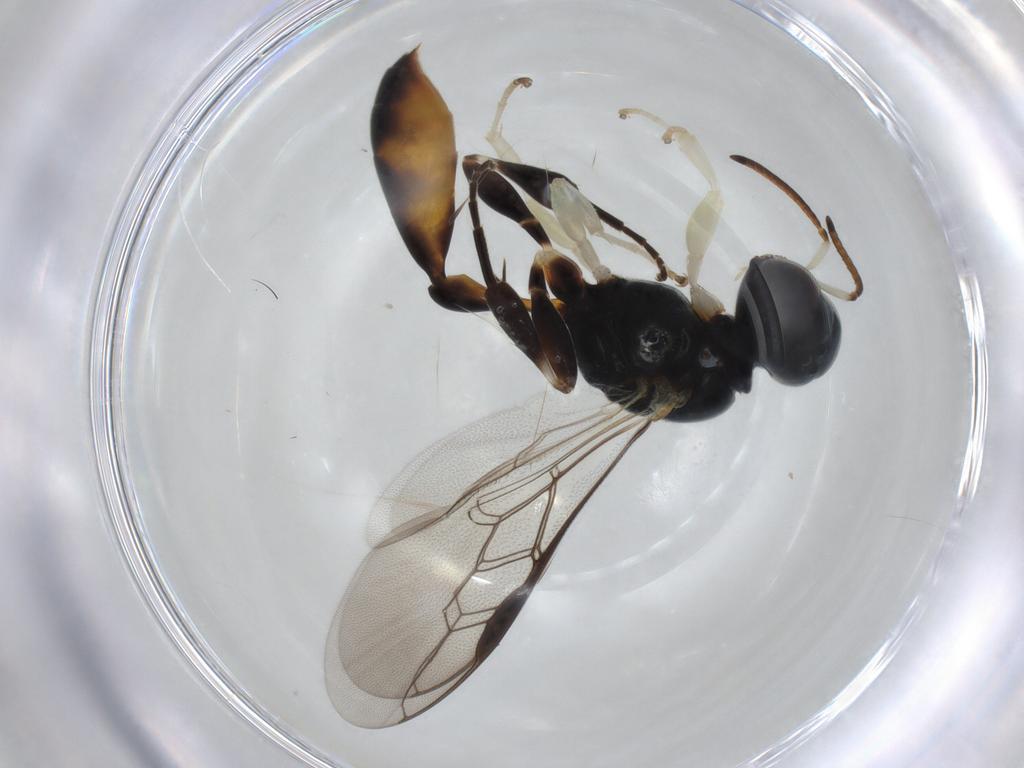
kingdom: Animalia
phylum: Arthropoda
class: Insecta
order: Hymenoptera
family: Crabronidae
